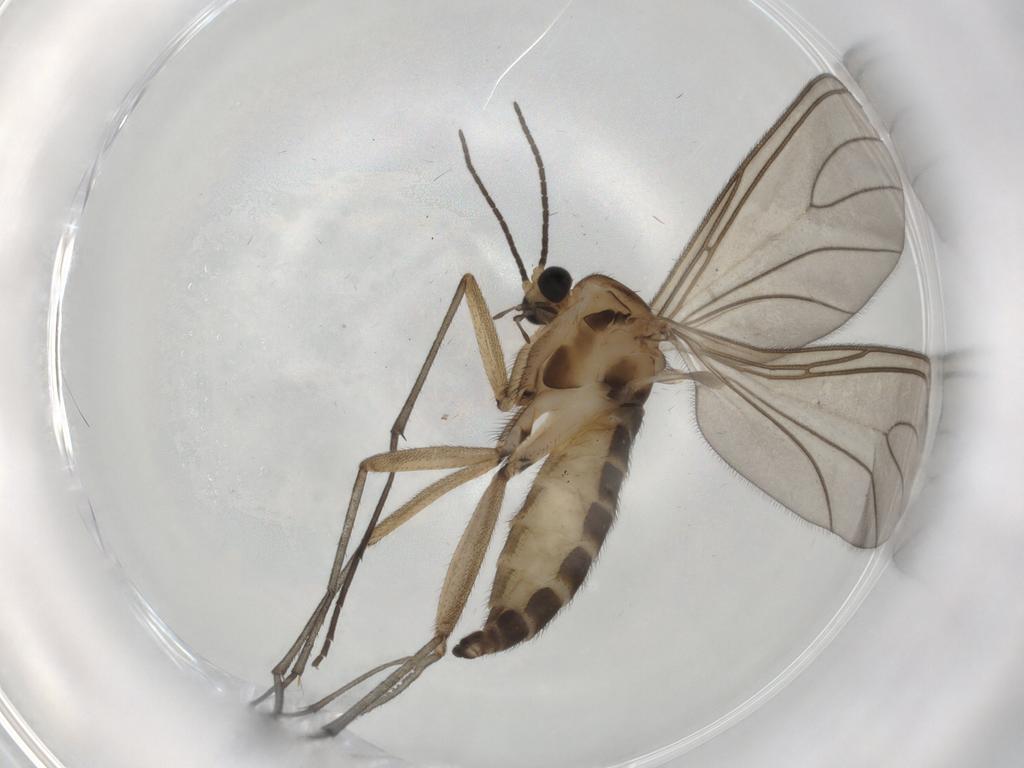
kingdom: Animalia
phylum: Arthropoda
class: Insecta
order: Diptera
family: Sciaridae
